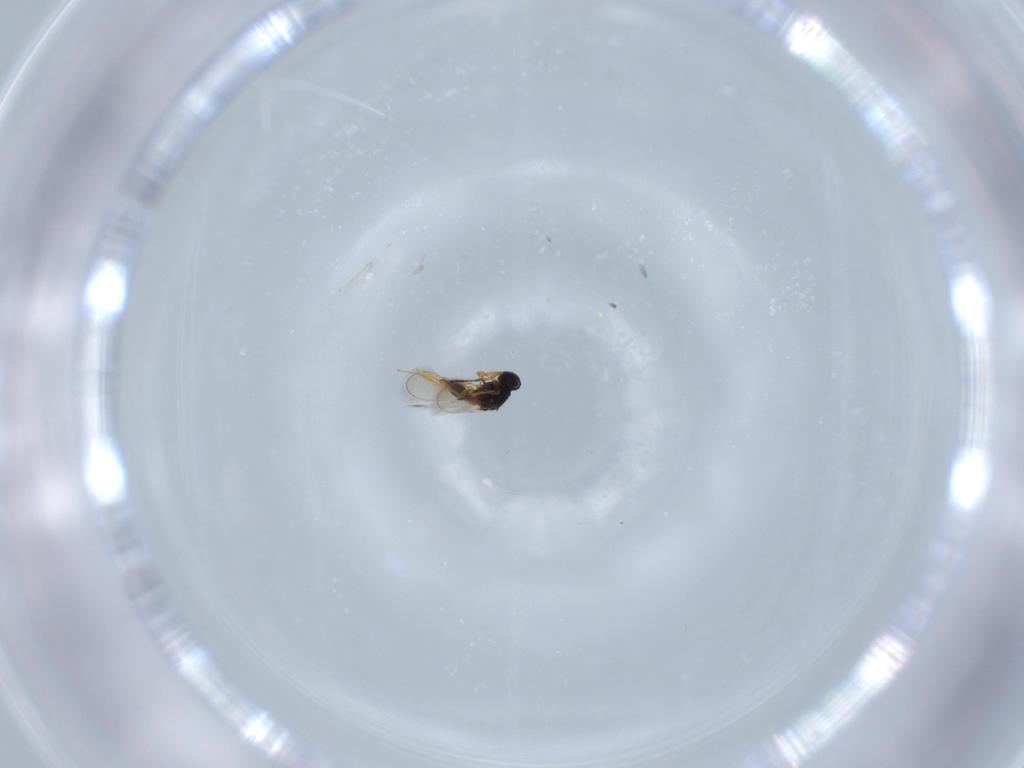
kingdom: Animalia
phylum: Arthropoda
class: Insecta
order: Hymenoptera
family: Platygastridae
